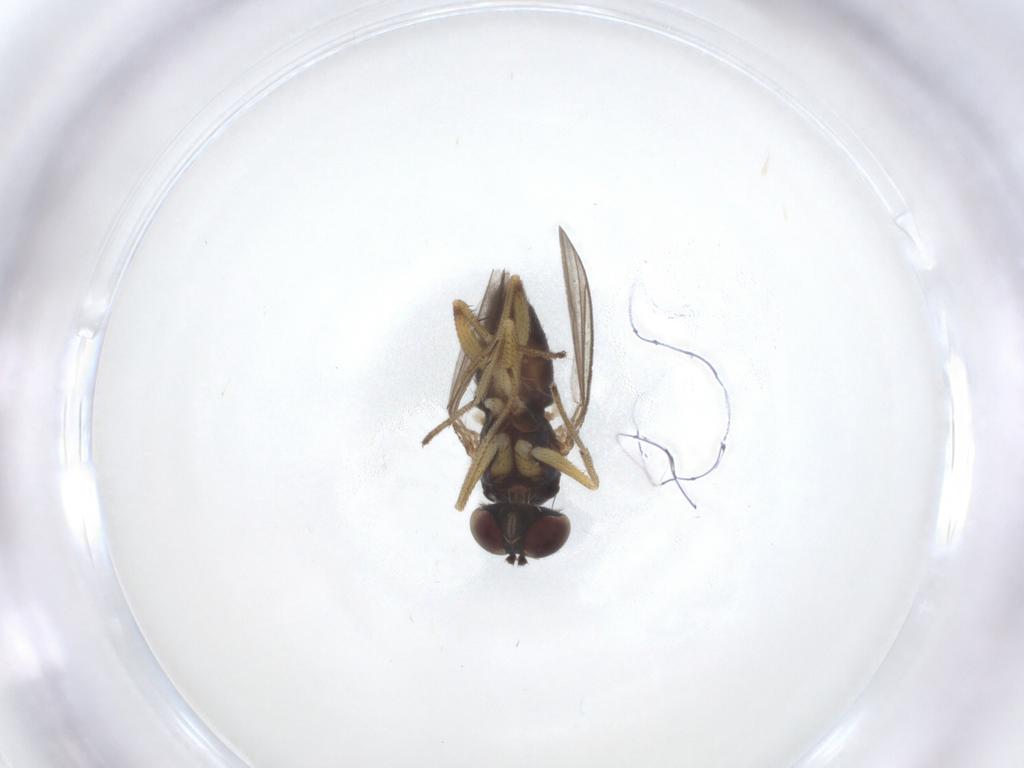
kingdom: Animalia
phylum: Arthropoda
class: Insecta
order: Diptera
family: Dolichopodidae
